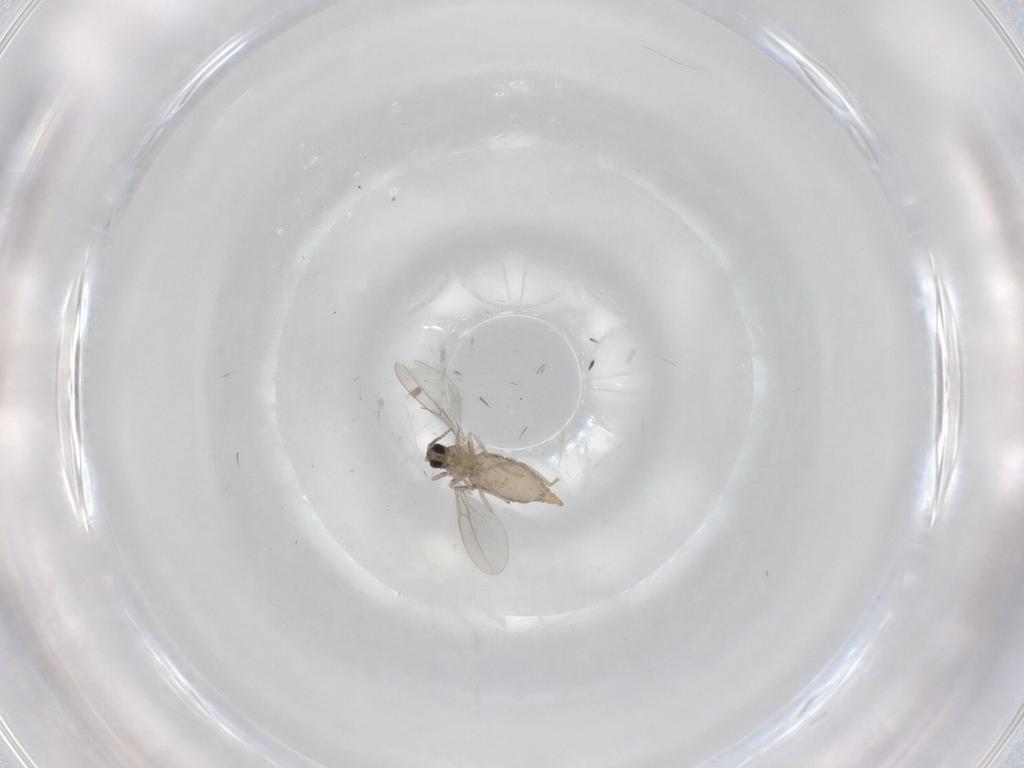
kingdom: Animalia
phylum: Arthropoda
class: Insecta
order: Diptera
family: Cecidomyiidae
